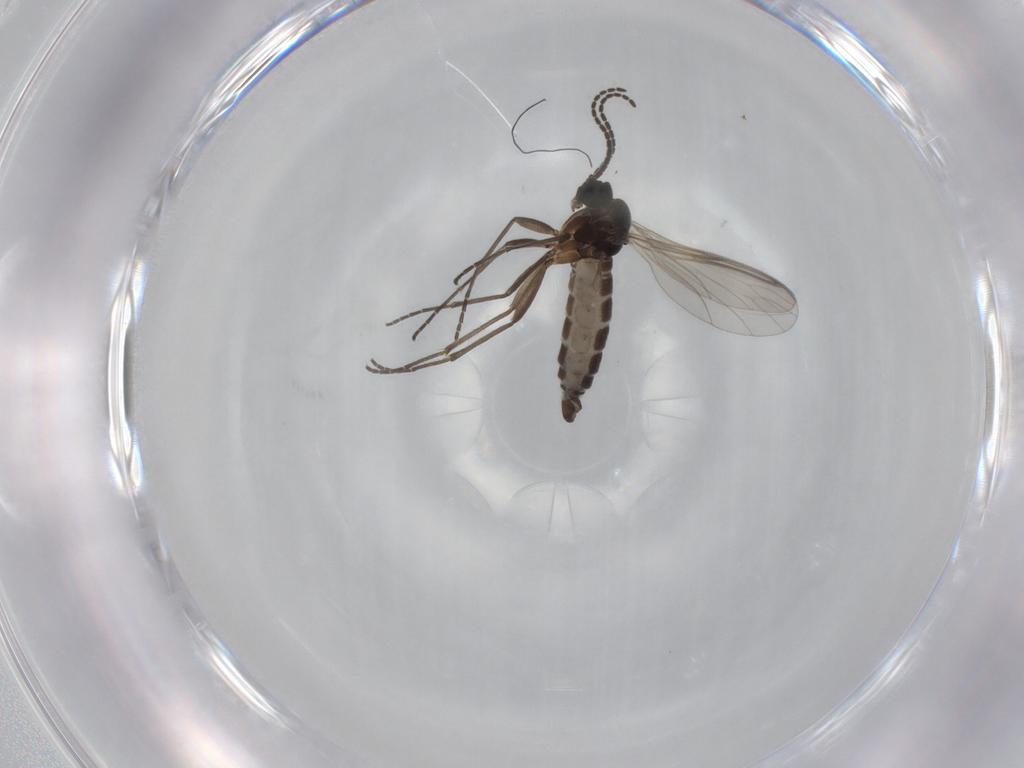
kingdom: Animalia
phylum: Arthropoda
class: Insecta
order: Diptera
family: Sciaridae
